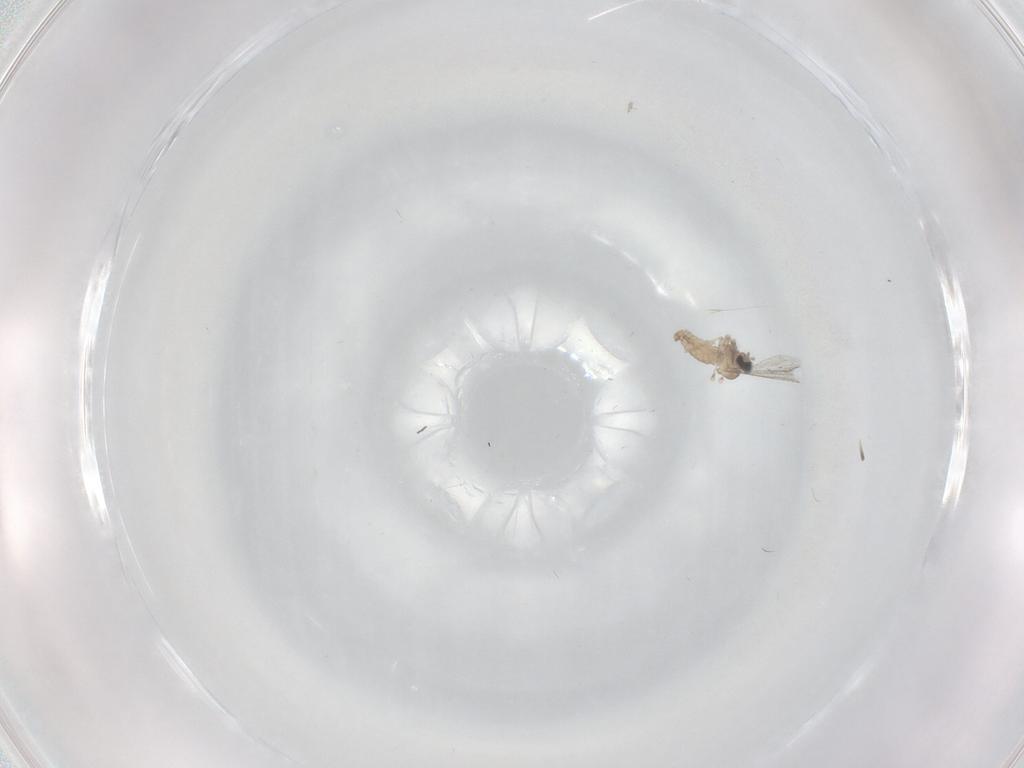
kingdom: Animalia
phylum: Arthropoda
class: Insecta
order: Diptera
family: Cecidomyiidae
